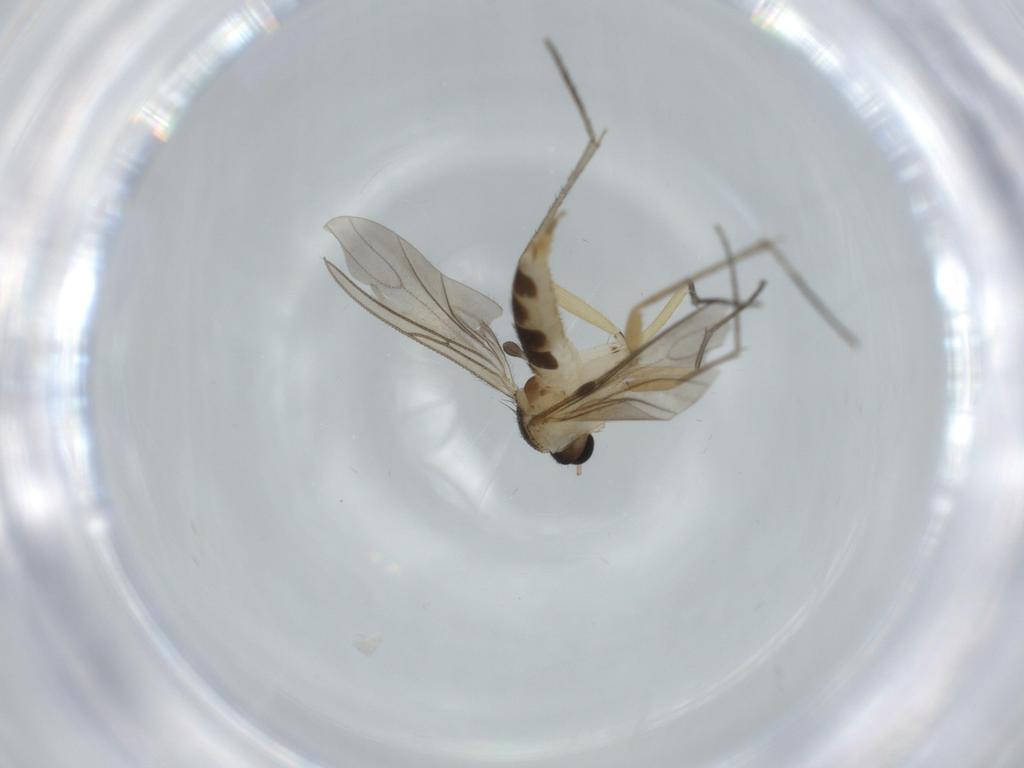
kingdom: Animalia
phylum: Arthropoda
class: Insecta
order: Diptera
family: Sciaridae
